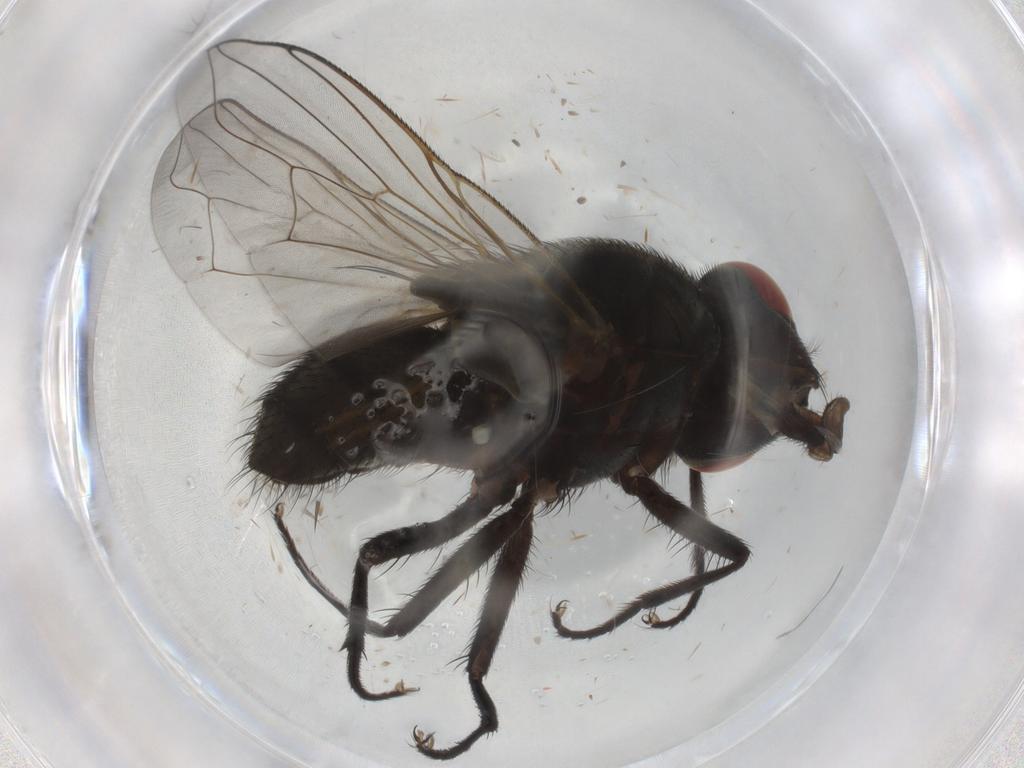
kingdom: Animalia
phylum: Arthropoda
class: Insecta
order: Diptera
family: Muscidae
